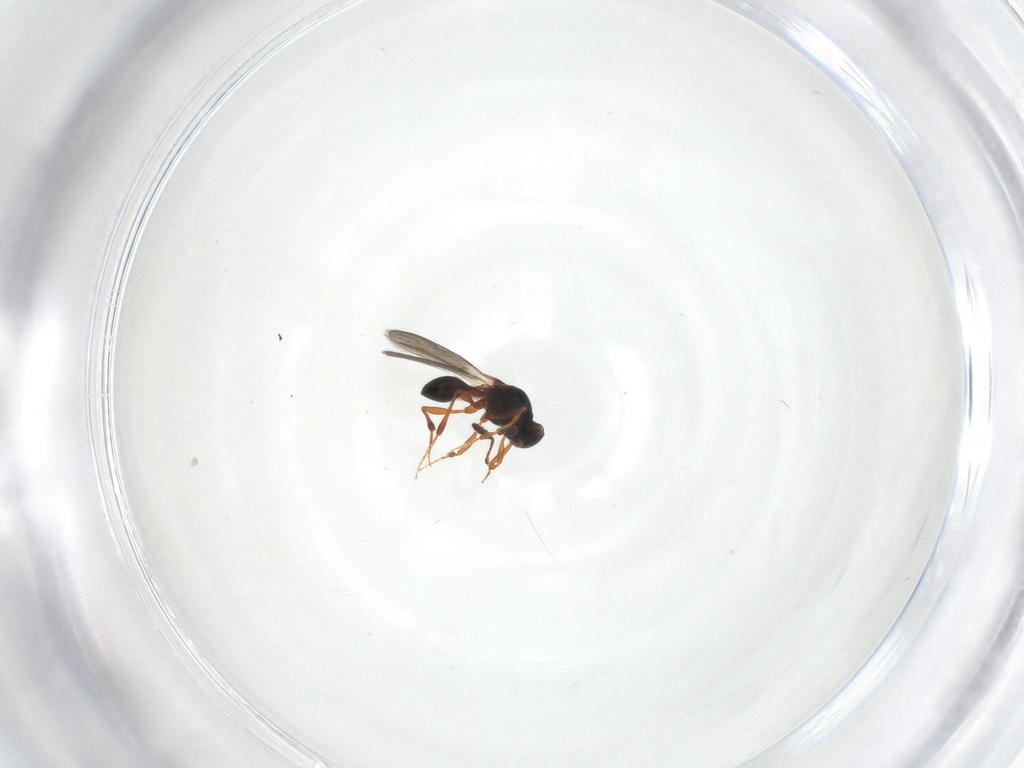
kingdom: Animalia
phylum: Arthropoda
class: Insecta
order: Hymenoptera
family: Platygastridae
